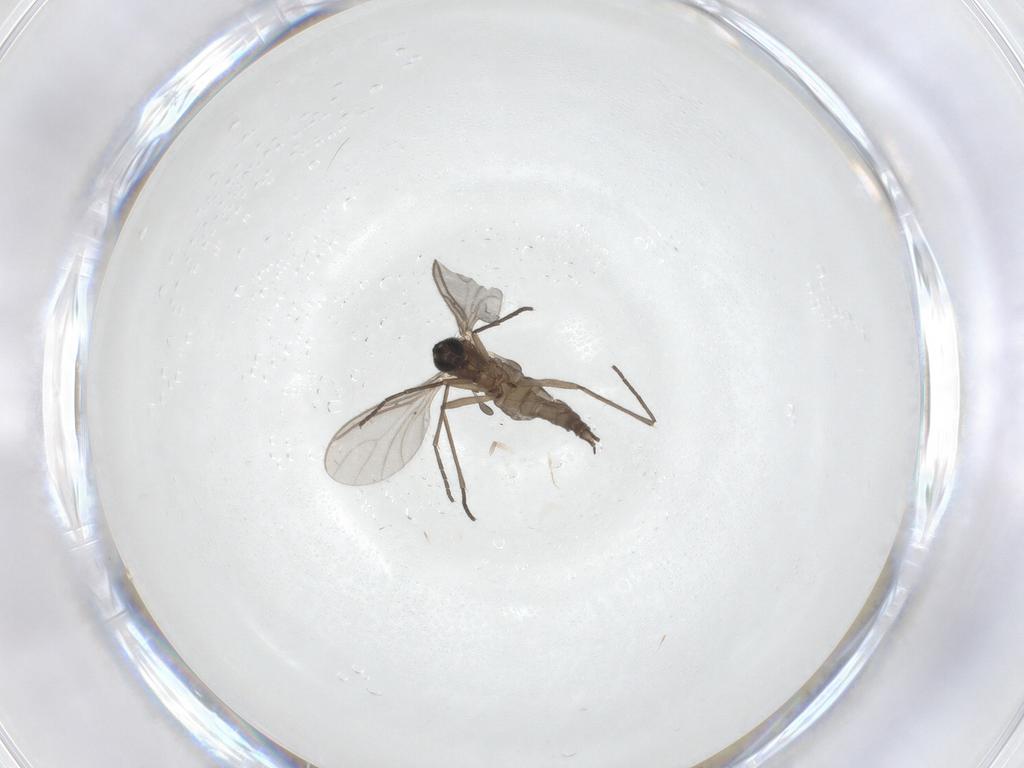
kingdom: Animalia
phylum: Arthropoda
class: Insecta
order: Diptera
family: Sciaridae
